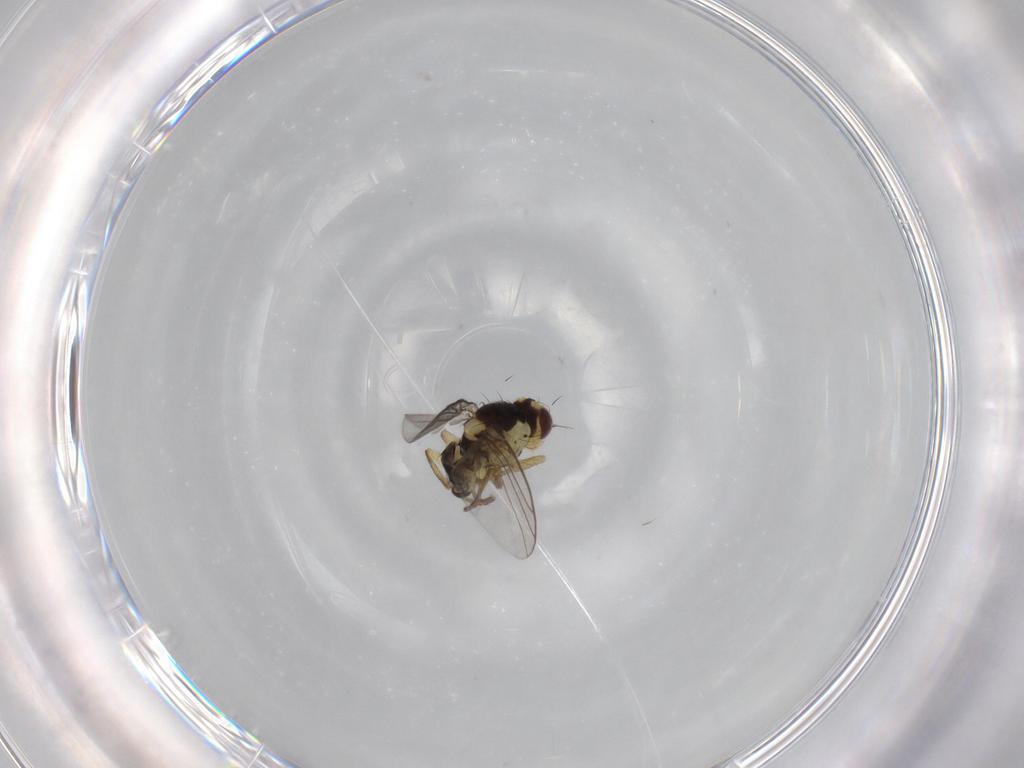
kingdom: Animalia
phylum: Arthropoda
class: Insecta
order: Diptera
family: Agromyzidae
